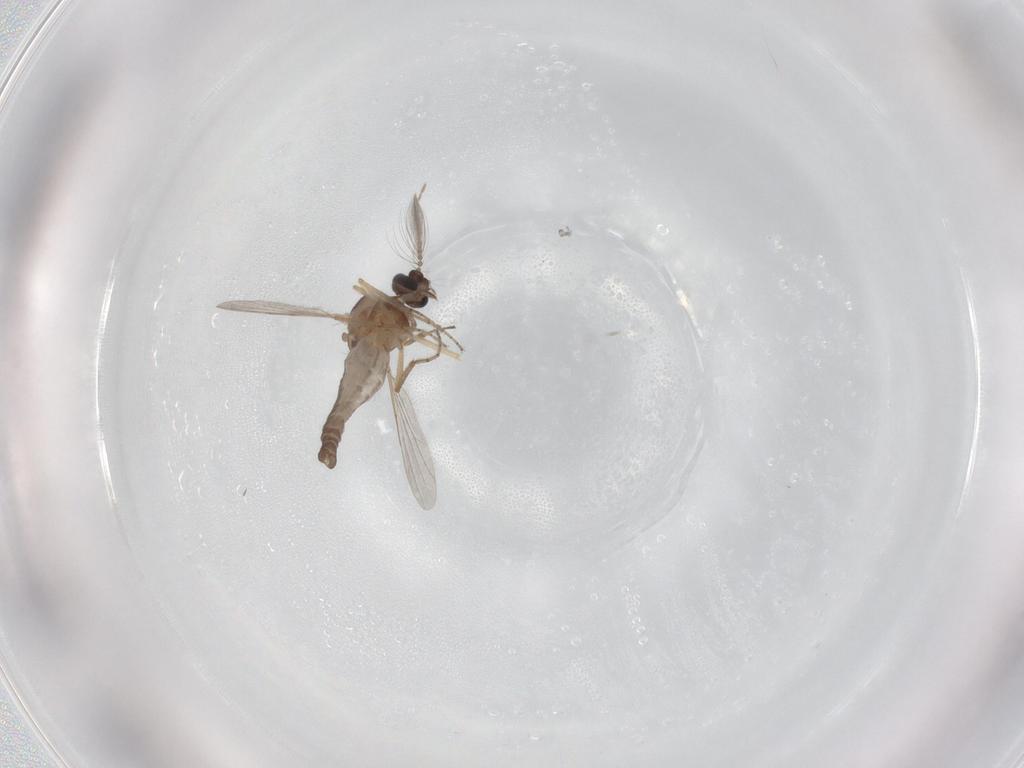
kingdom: Animalia
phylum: Arthropoda
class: Insecta
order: Diptera
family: Ceratopogonidae
